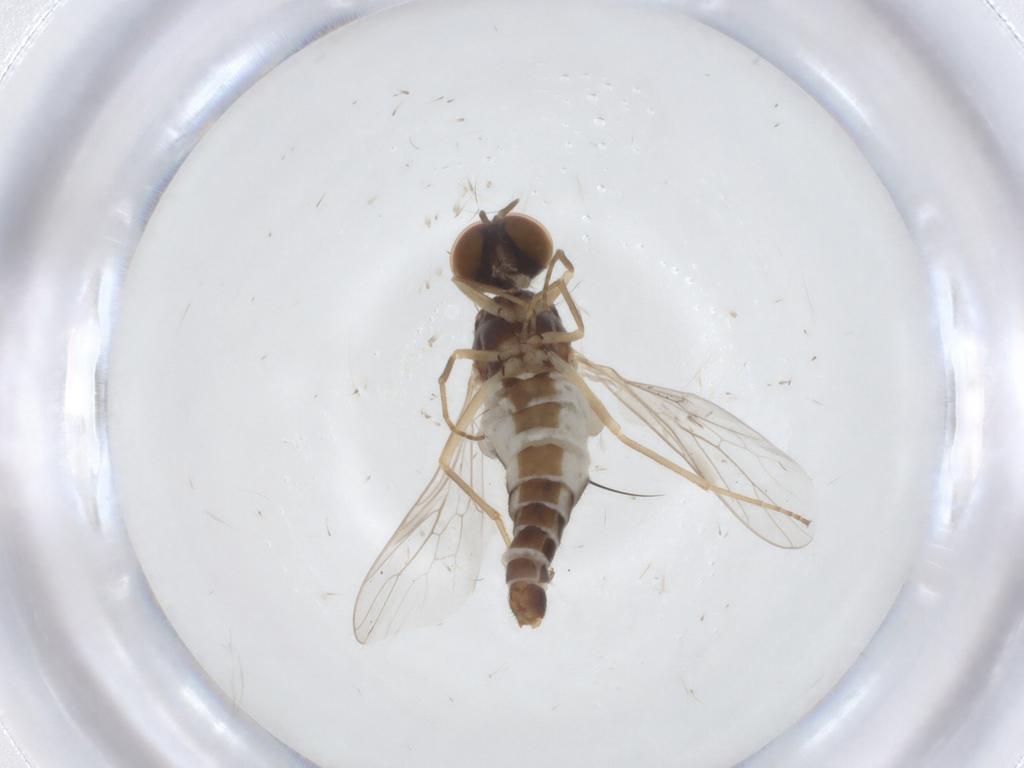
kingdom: Animalia
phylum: Arthropoda
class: Insecta
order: Diptera
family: Scenopinidae
